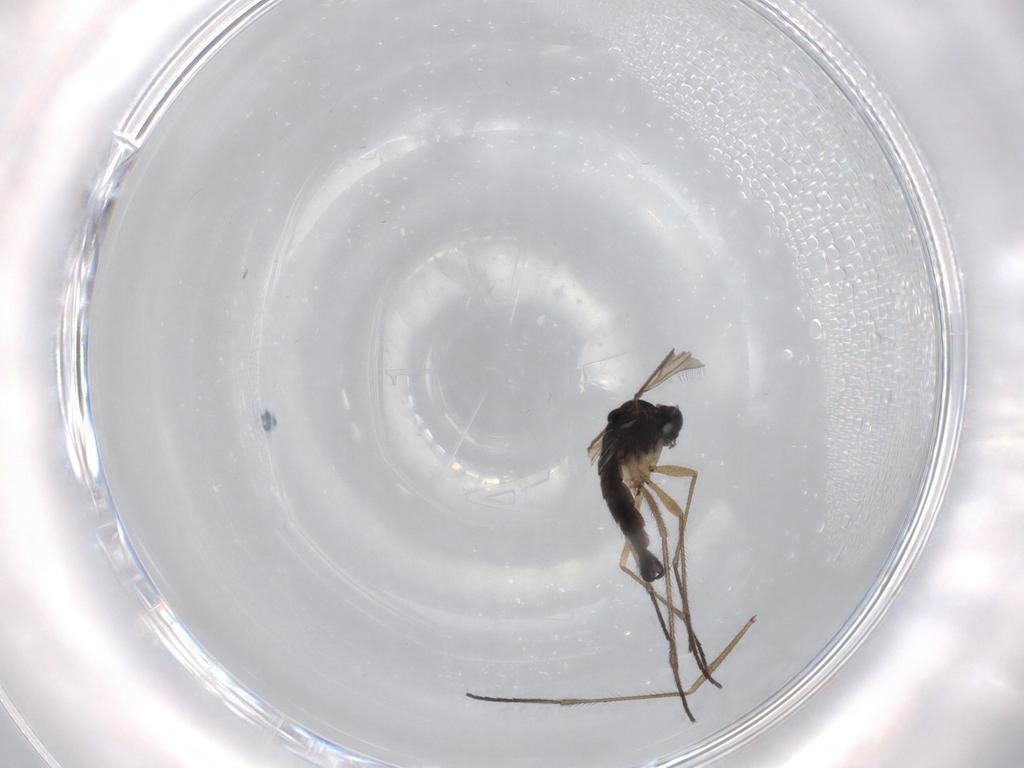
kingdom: Animalia
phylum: Arthropoda
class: Insecta
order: Diptera
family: Sciaridae
